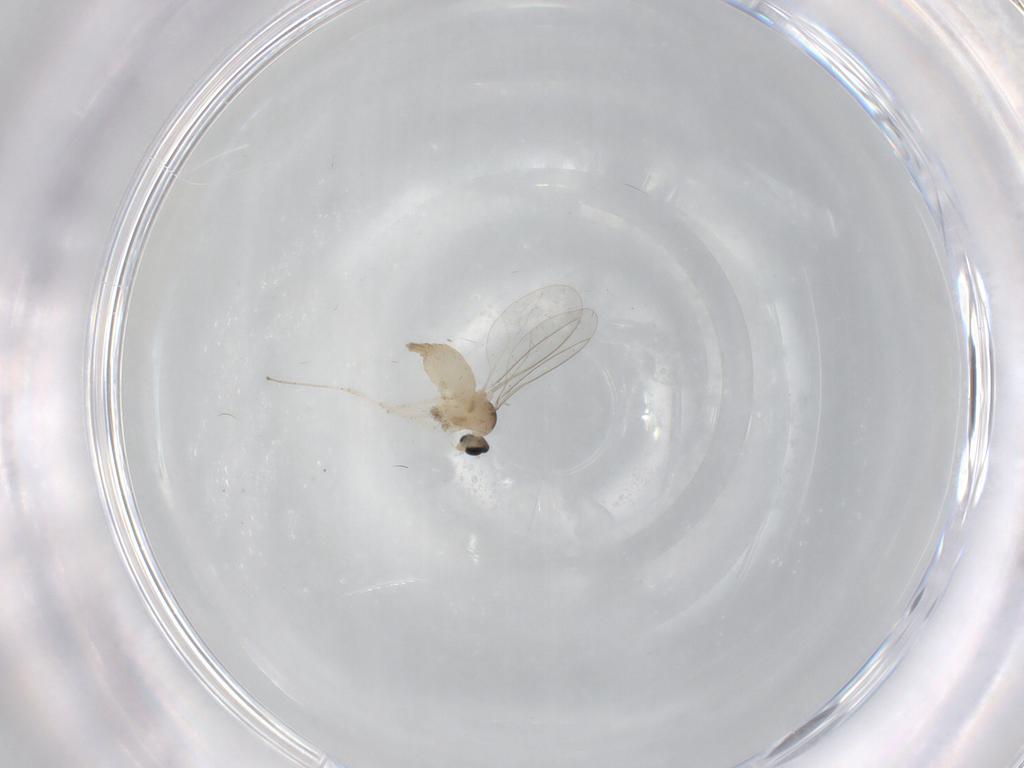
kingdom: Animalia
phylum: Arthropoda
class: Insecta
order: Diptera
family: Cecidomyiidae
